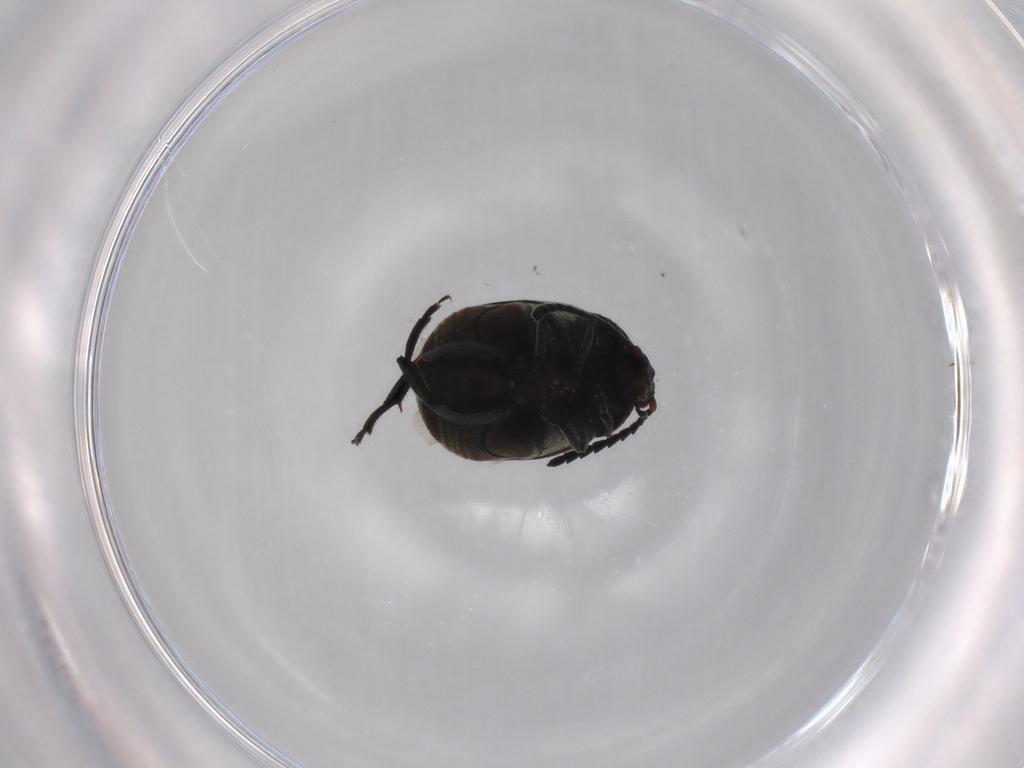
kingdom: Animalia
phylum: Arthropoda
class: Insecta
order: Coleoptera
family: Chrysomelidae
